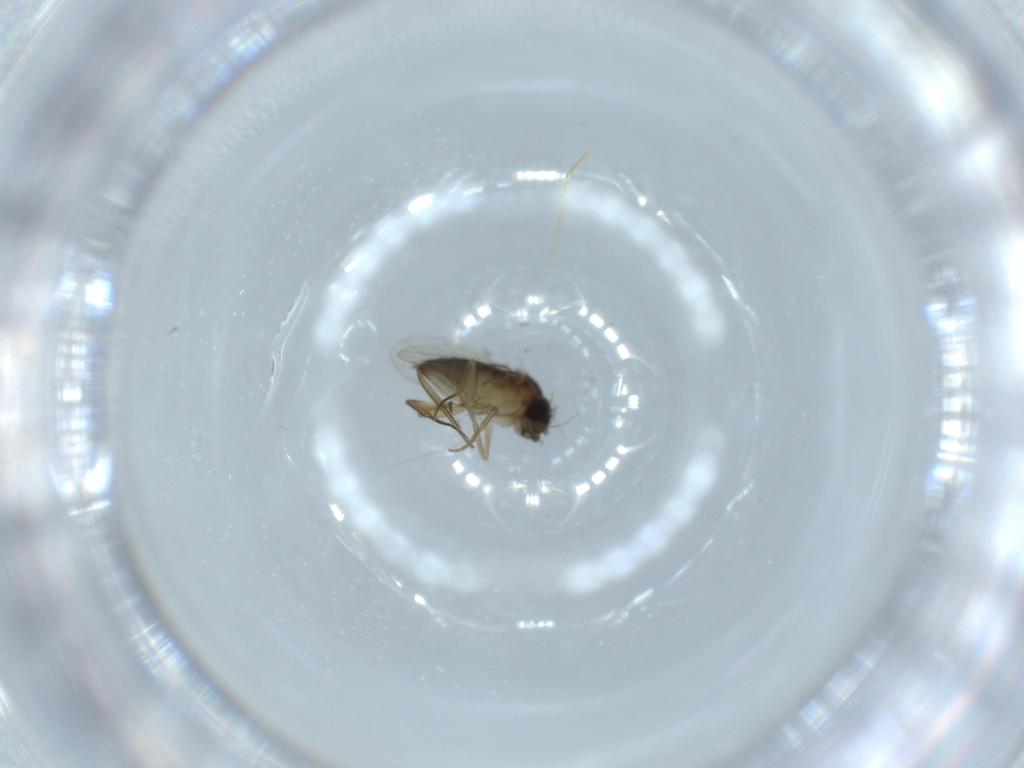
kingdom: Animalia
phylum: Arthropoda
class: Insecta
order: Diptera
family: Phoridae
